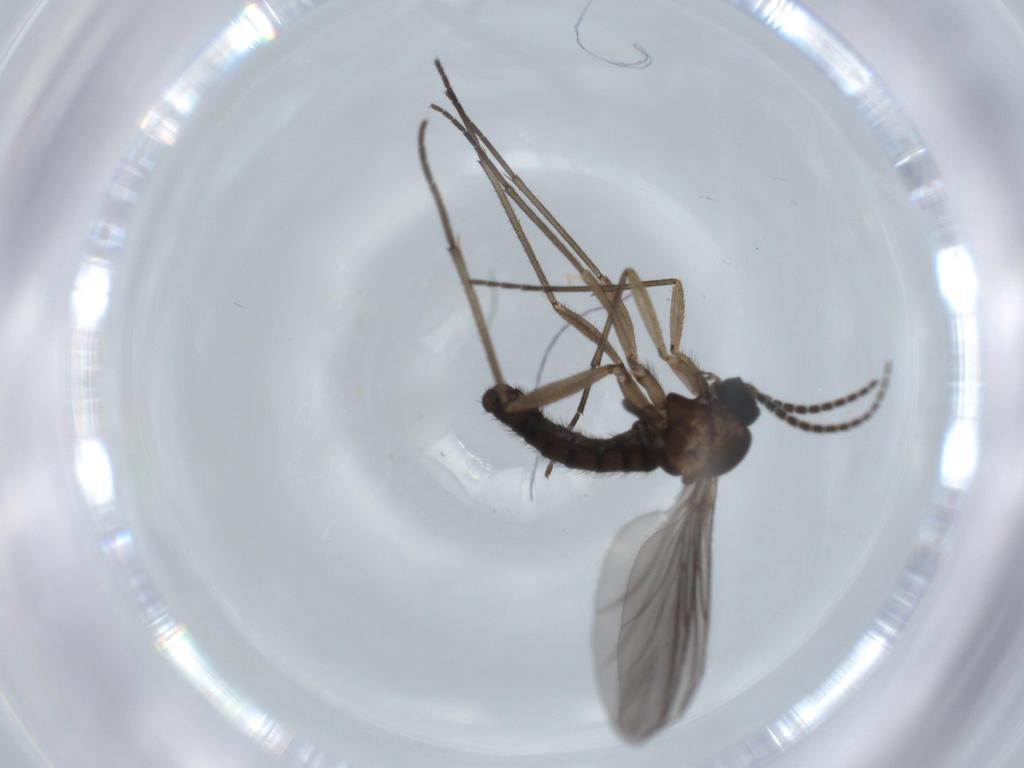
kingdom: Animalia
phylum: Arthropoda
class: Insecta
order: Diptera
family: Sciaridae
